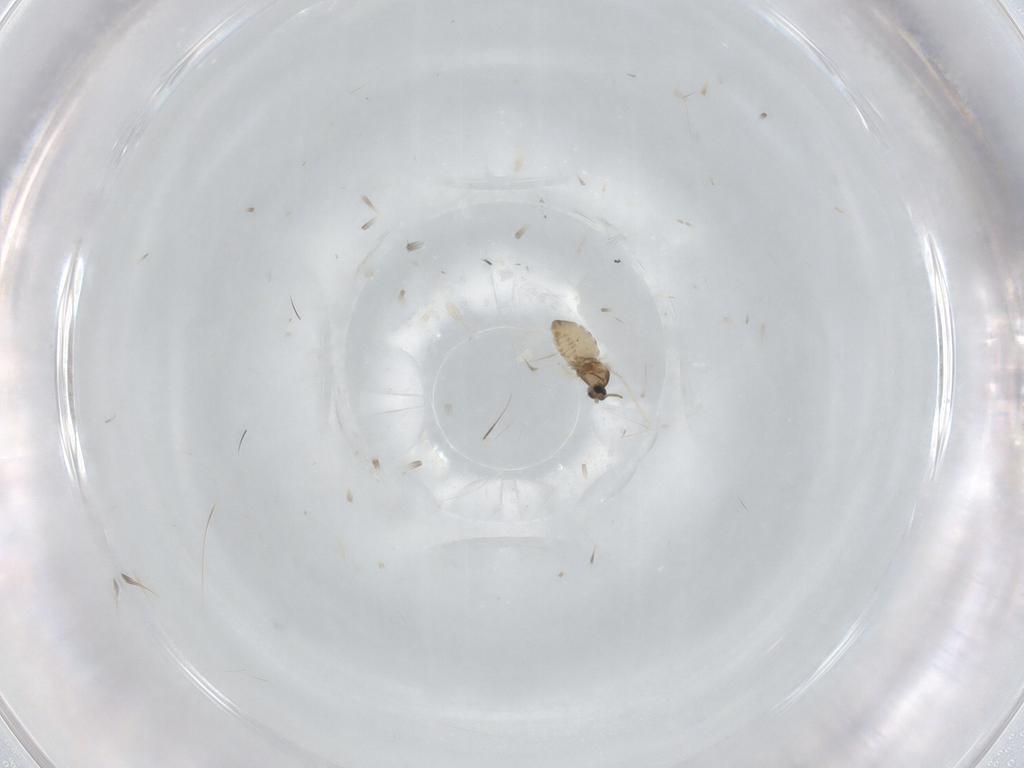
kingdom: Animalia
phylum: Arthropoda
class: Insecta
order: Diptera
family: Cecidomyiidae
